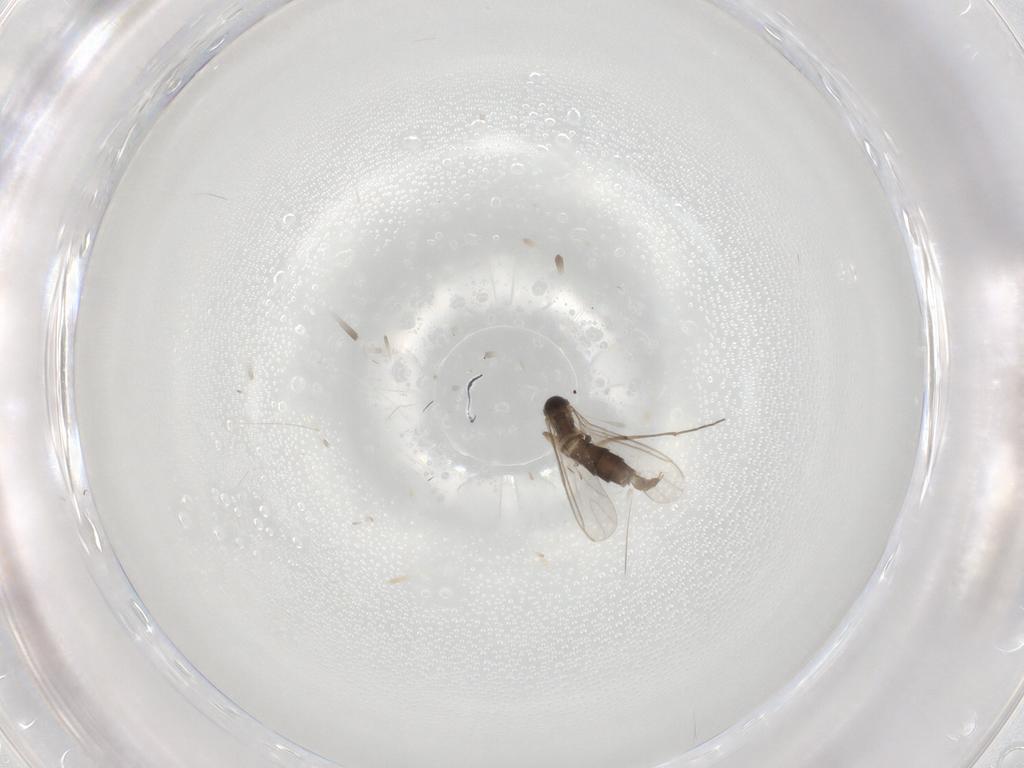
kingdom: Animalia
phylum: Arthropoda
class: Insecta
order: Diptera
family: Sciaridae
